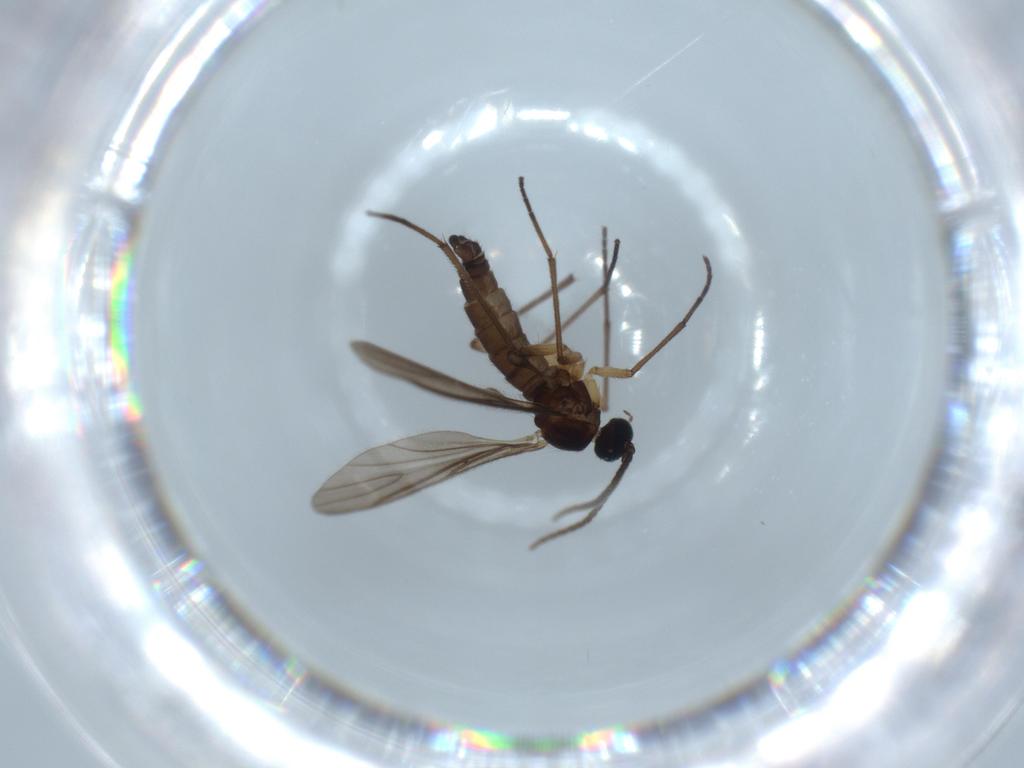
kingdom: Animalia
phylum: Arthropoda
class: Insecta
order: Diptera
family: Sciaridae
